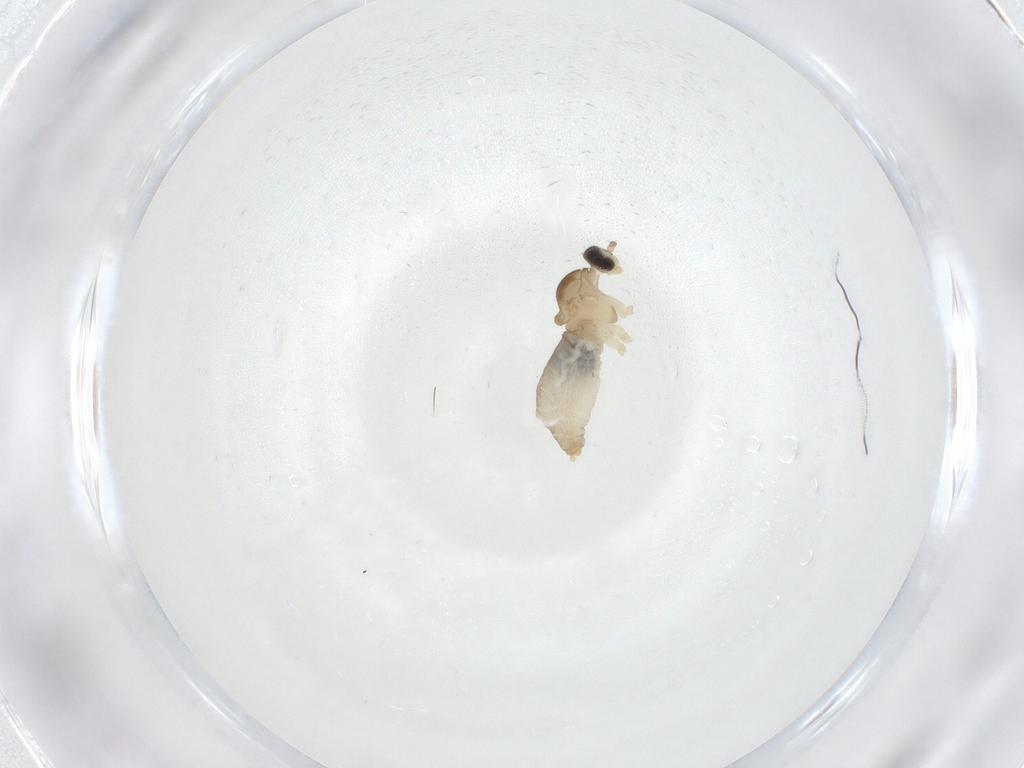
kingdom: Animalia
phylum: Arthropoda
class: Insecta
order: Diptera
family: Cecidomyiidae
